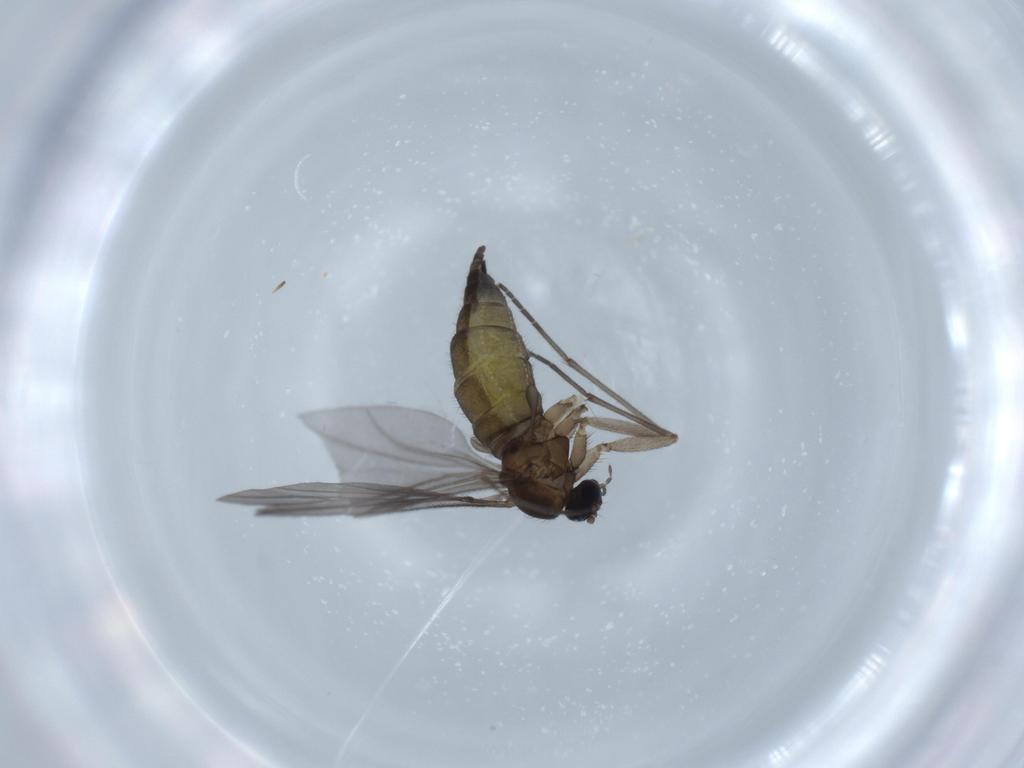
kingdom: Animalia
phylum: Arthropoda
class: Insecta
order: Diptera
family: Sciaridae
